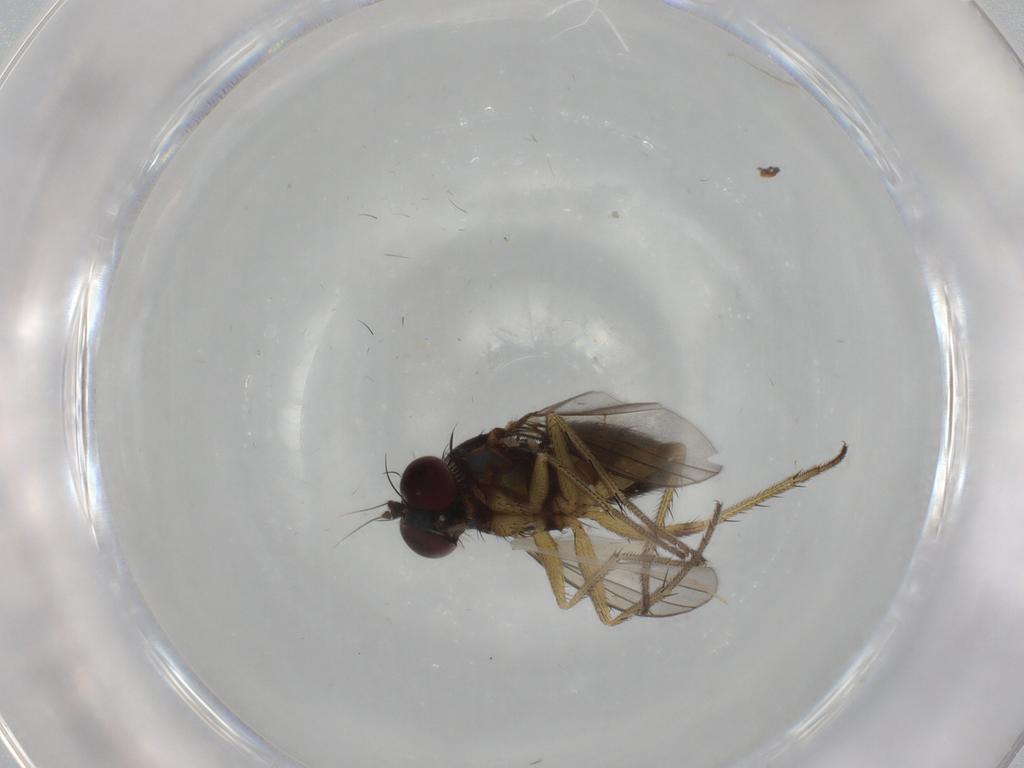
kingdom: Animalia
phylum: Arthropoda
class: Insecta
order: Diptera
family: Dolichopodidae
